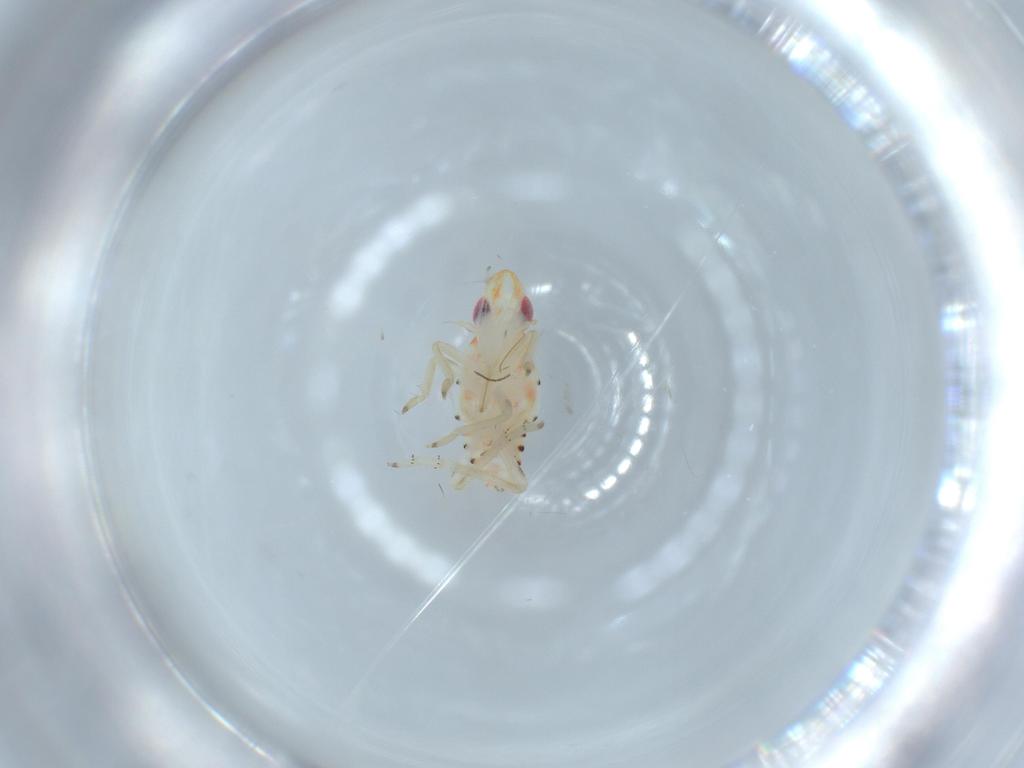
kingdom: Animalia
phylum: Arthropoda
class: Insecta
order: Hemiptera
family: Tropiduchidae
